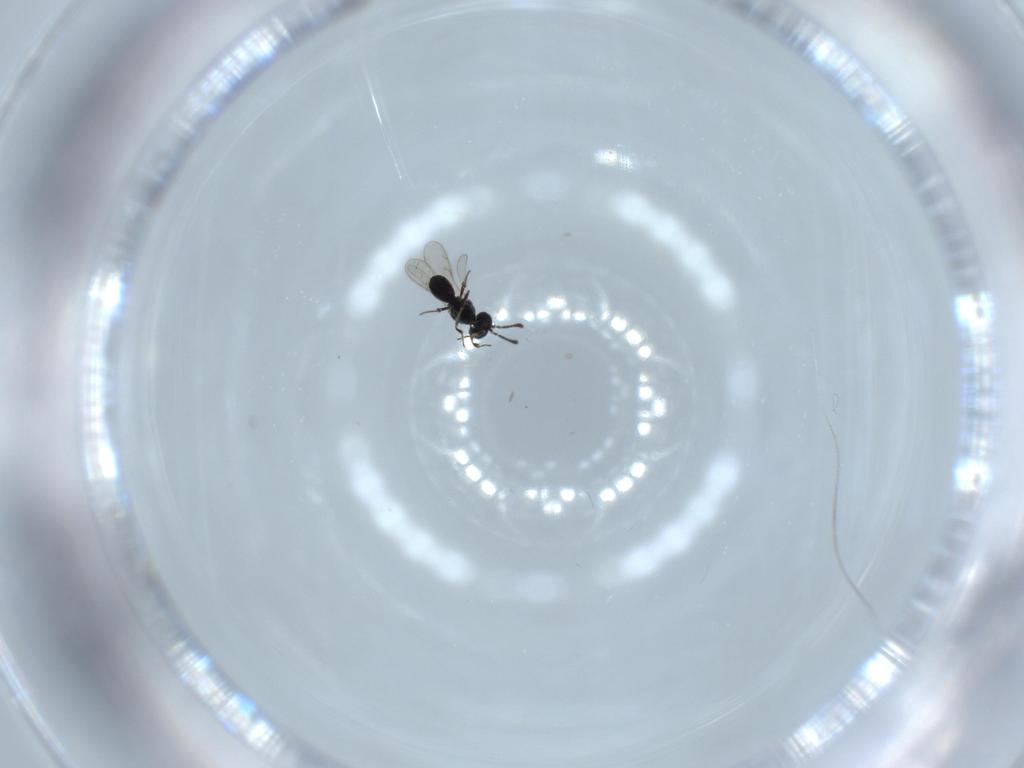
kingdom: Animalia
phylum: Arthropoda
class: Insecta
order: Hymenoptera
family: Scelionidae
